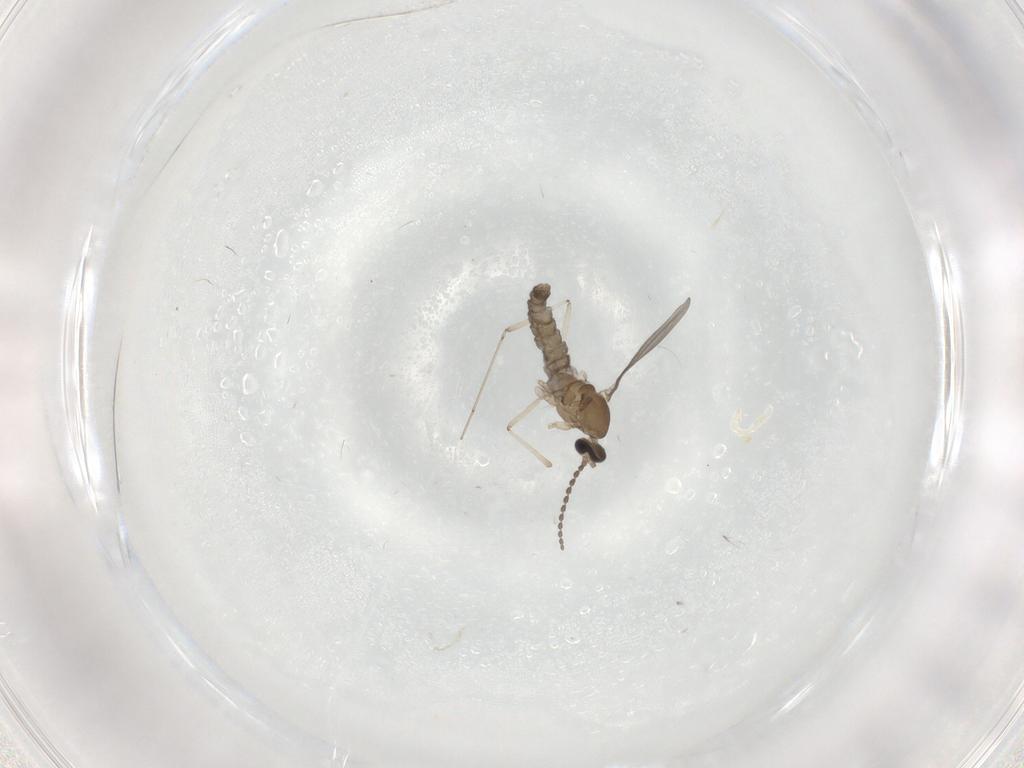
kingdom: Animalia
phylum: Arthropoda
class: Insecta
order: Diptera
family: Cecidomyiidae
